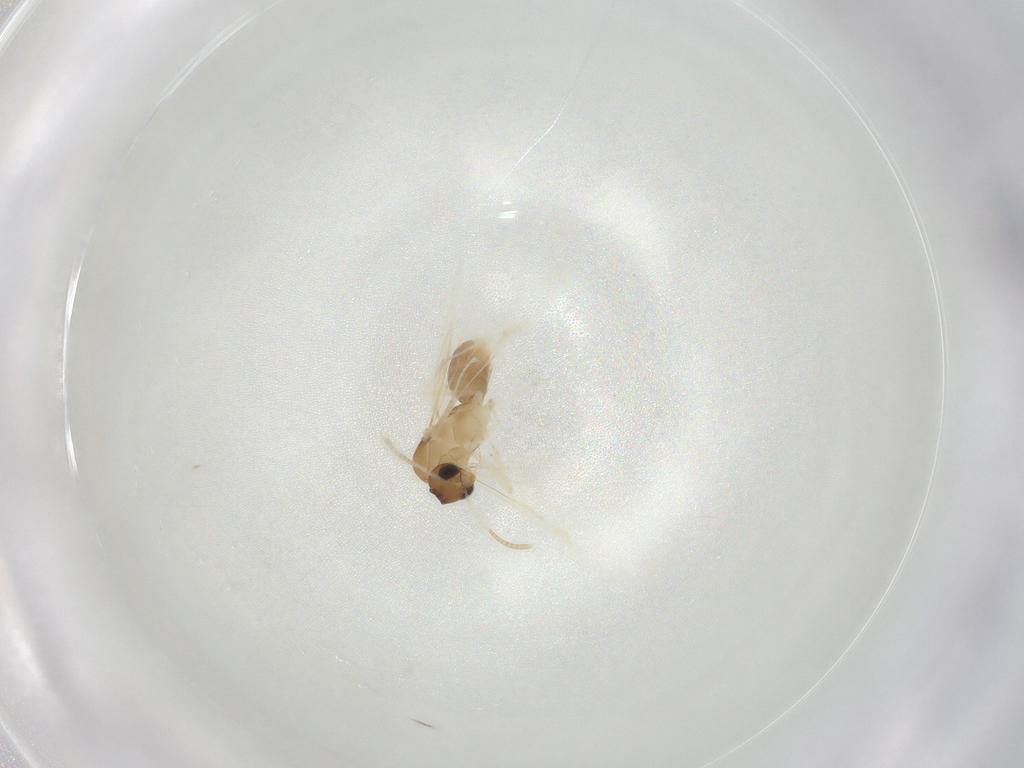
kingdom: Animalia
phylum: Arthropoda
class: Insecta
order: Hymenoptera
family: Formicidae
